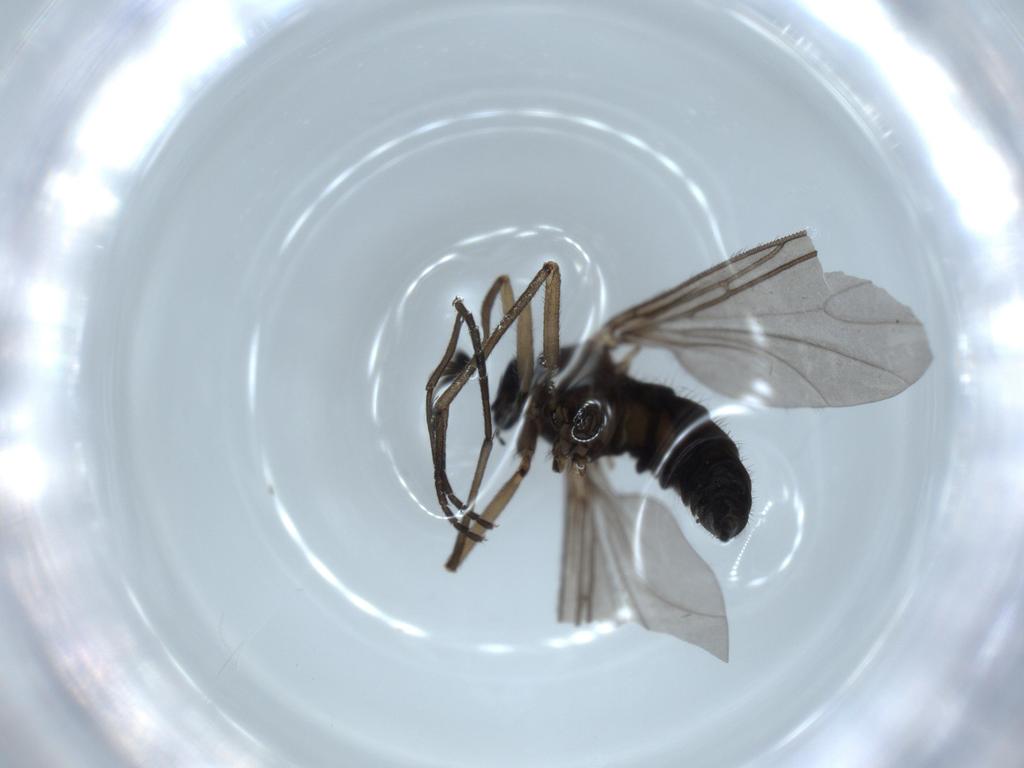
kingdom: Animalia
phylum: Arthropoda
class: Insecta
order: Diptera
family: Sciaridae
